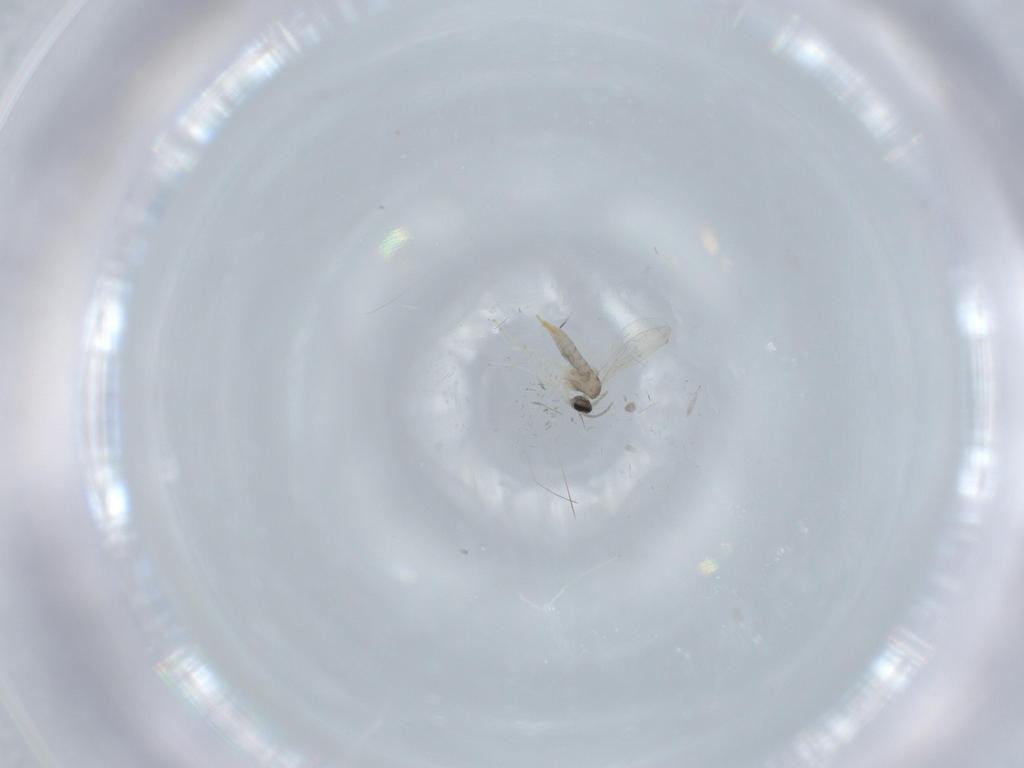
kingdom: Animalia
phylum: Arthropoda
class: Insecta
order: Diptera
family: Cecidomyiidae
